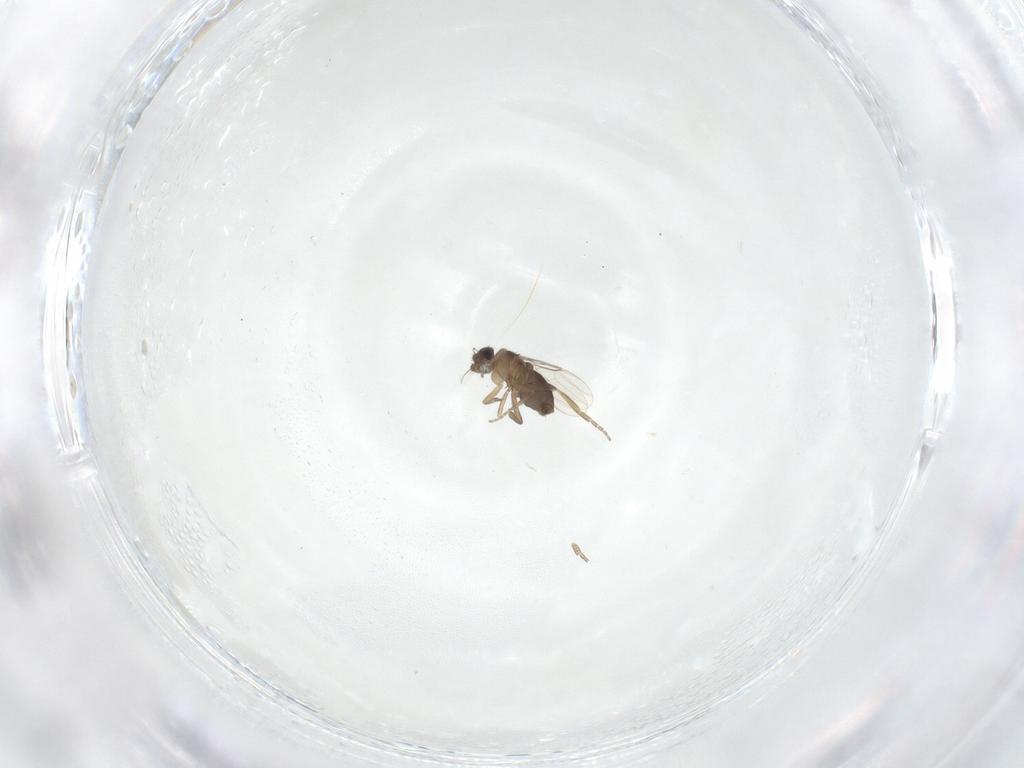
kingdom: Animalia
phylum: Arthropoda
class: Insecta
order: Diptera
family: Phoridae
